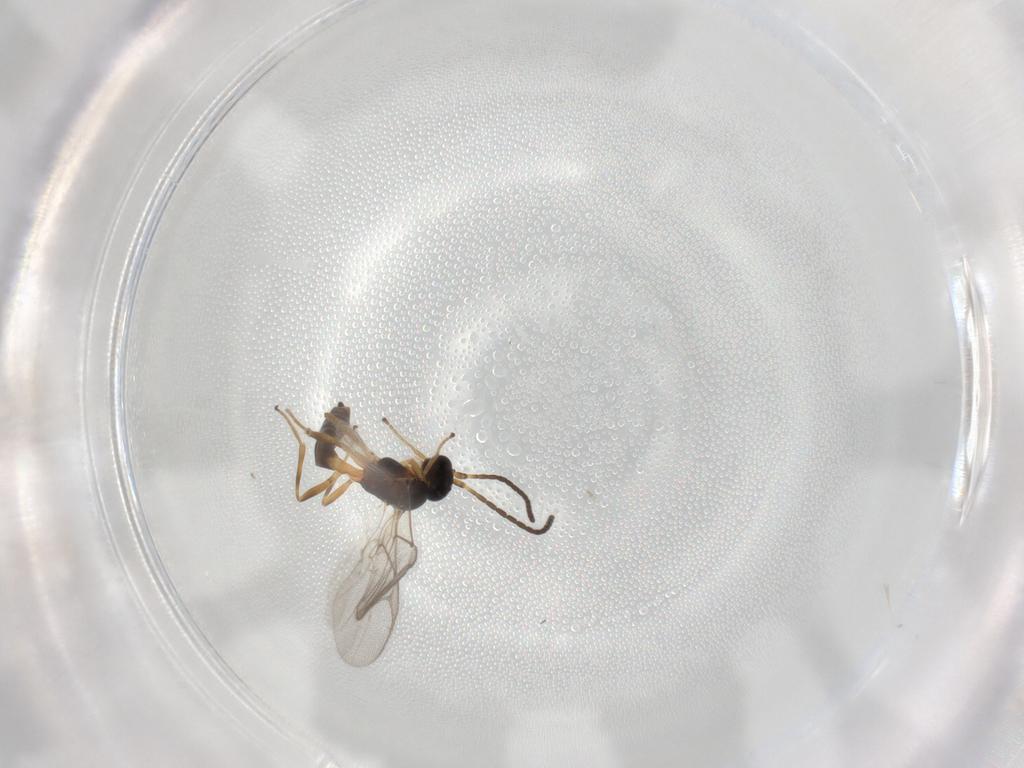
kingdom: Animalia
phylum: Arthropoda
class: Insecta
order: Hymenoptera
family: Braconidae
